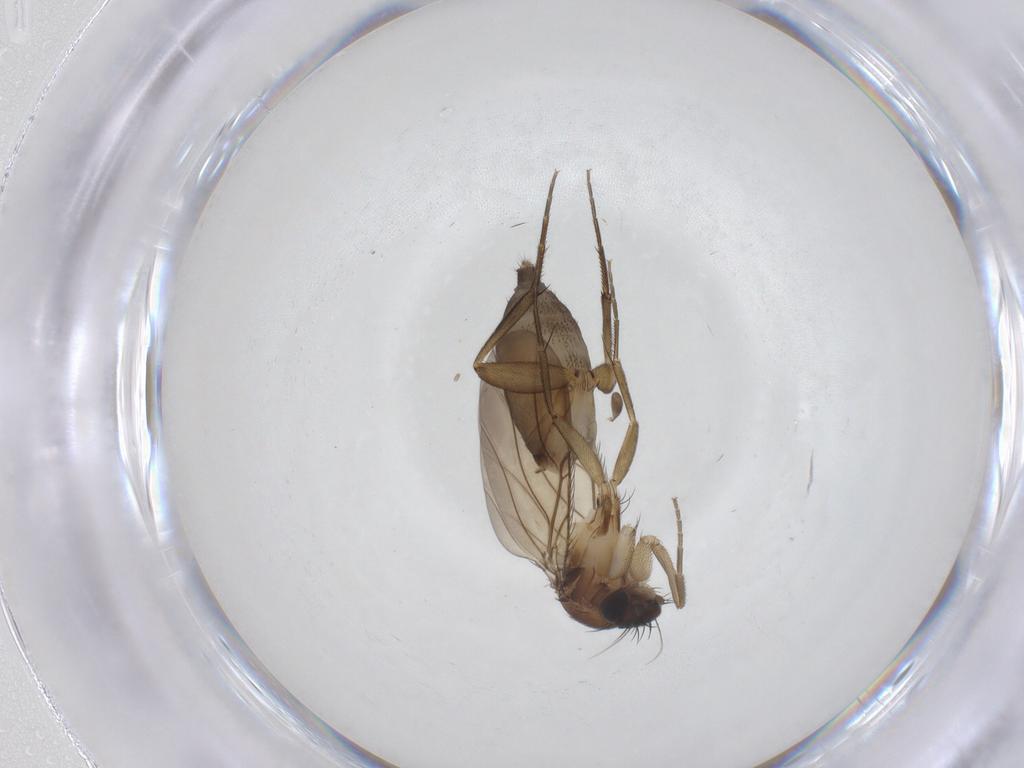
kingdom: Animalia
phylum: Arthropoda
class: Insecta
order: Diptera
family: Phoridae
